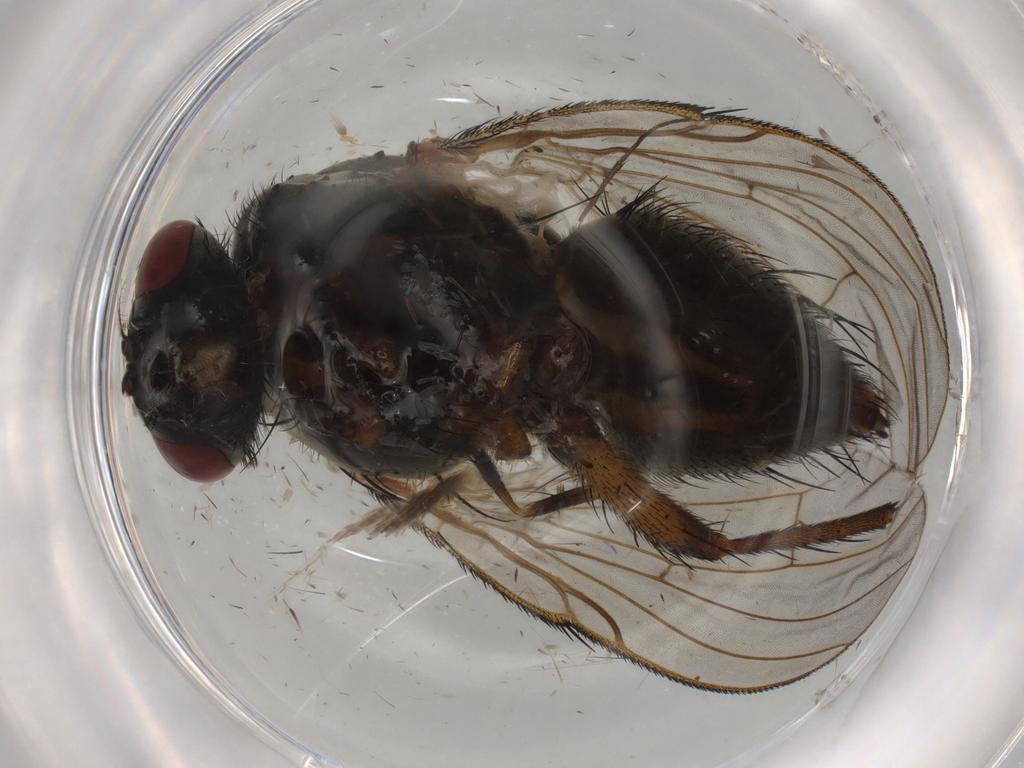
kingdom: Animalia
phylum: Arthropoda
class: Insecta
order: Diptera
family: Muscidae
